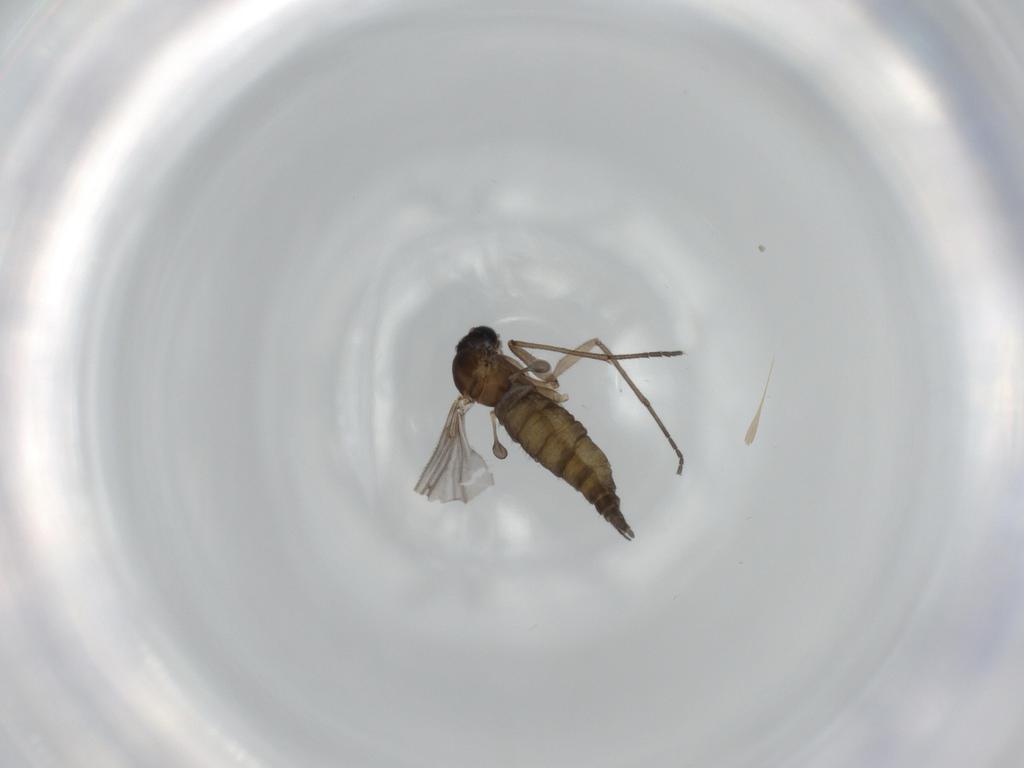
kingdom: Animalia
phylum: Arthropoda
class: Insecta
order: Diptera
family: Sciaridae
